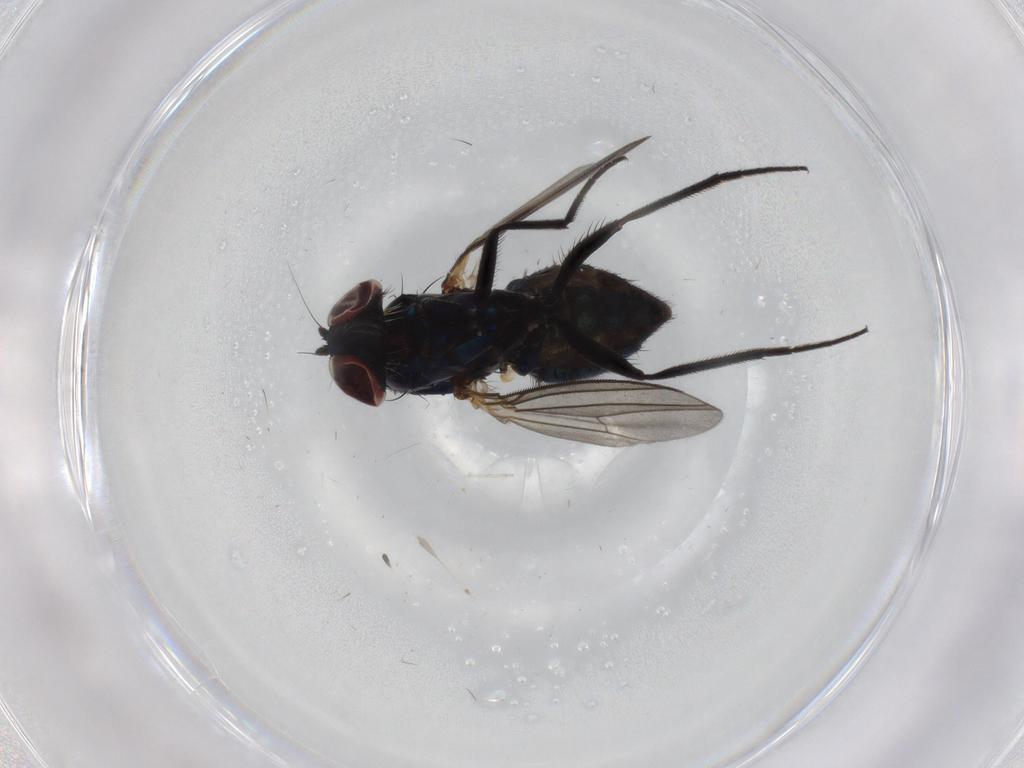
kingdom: Animalia
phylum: Arthropoda
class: Insecta
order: Diptera
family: Dolichopodidae
